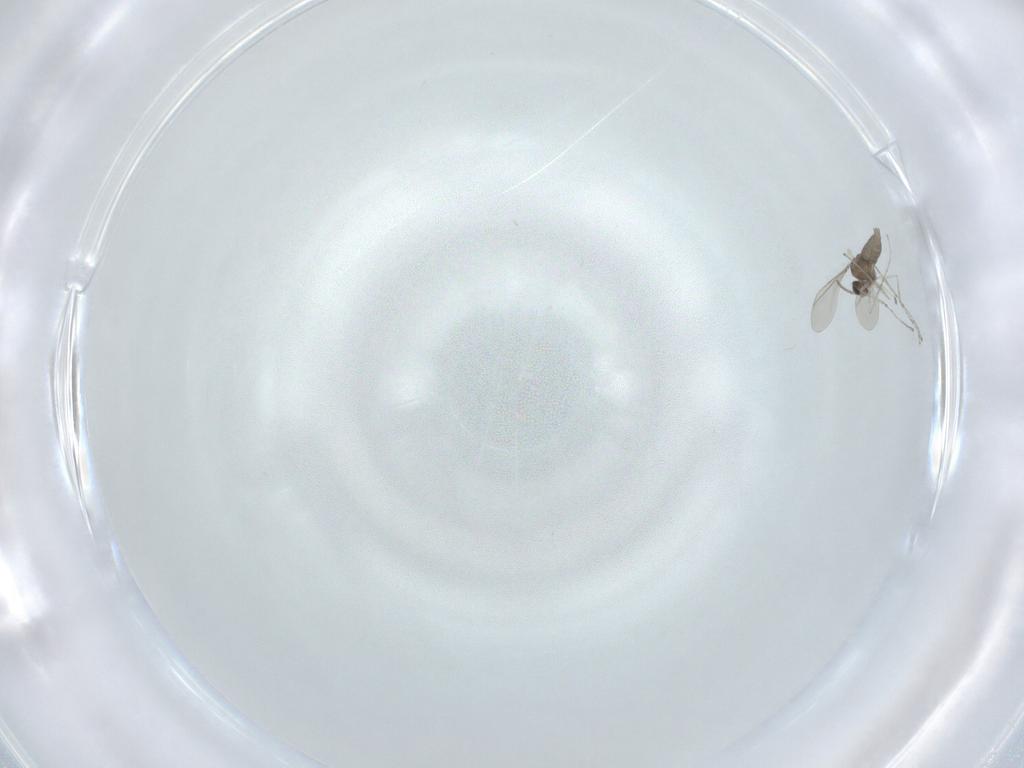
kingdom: Animalia
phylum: Arthropoda
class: Insecta
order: Diptera
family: Cecidomyiidae
